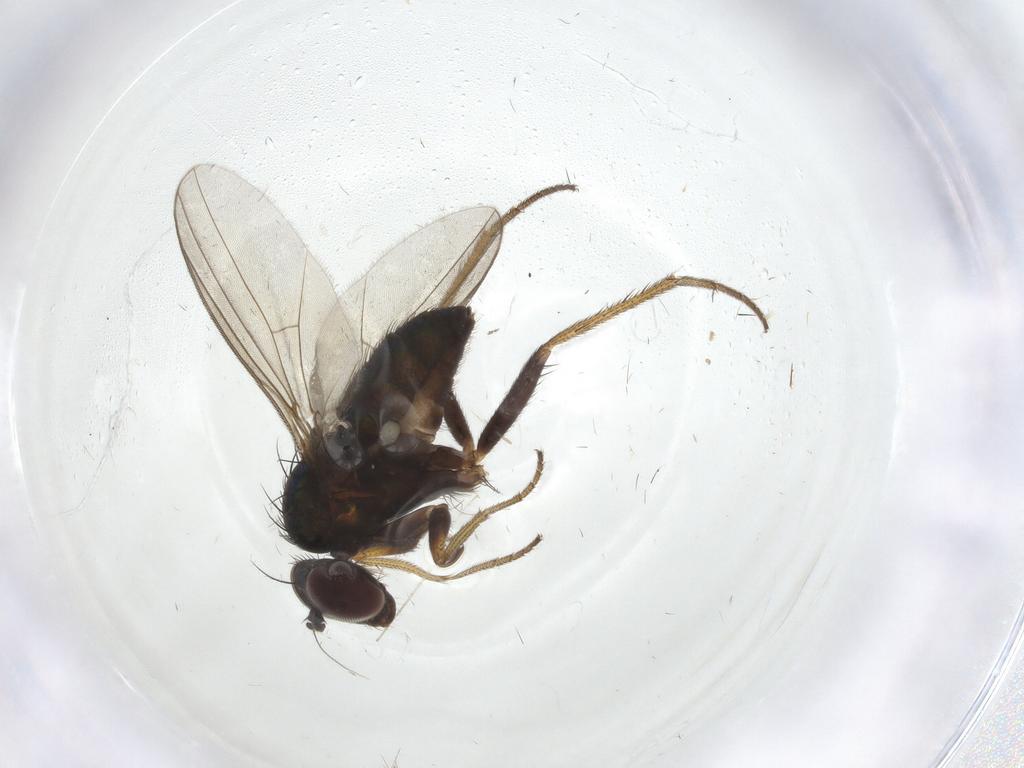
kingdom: Animalia
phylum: Arthropoda
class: Insecta
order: Diptera
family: Chironomidae
